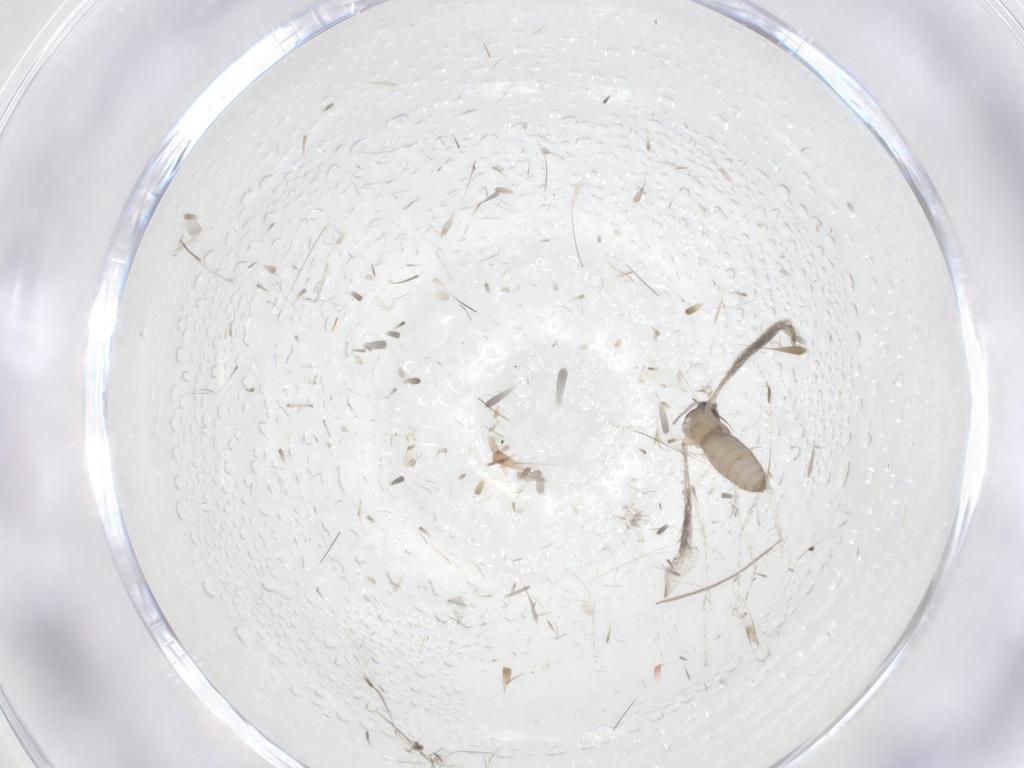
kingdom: Animalia
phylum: Arthropoda
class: Insecta
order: Diptera
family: Chironomidae
